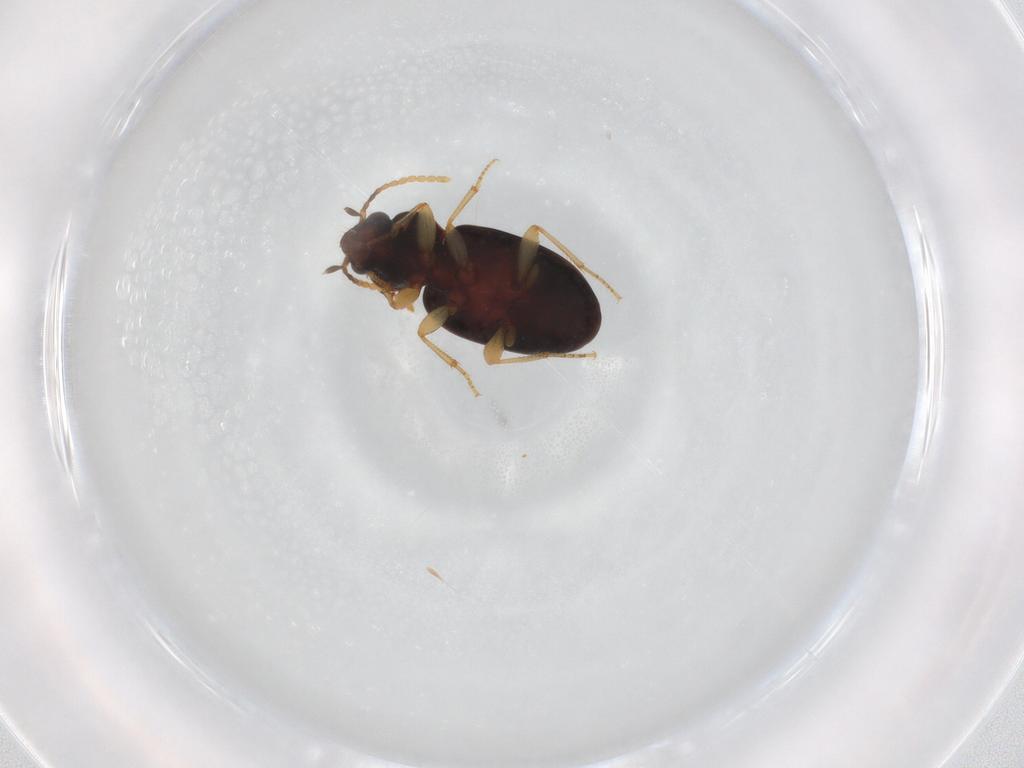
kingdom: Animalia
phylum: Arthropoda
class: Insecta
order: Coleoptera
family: Carabidae
